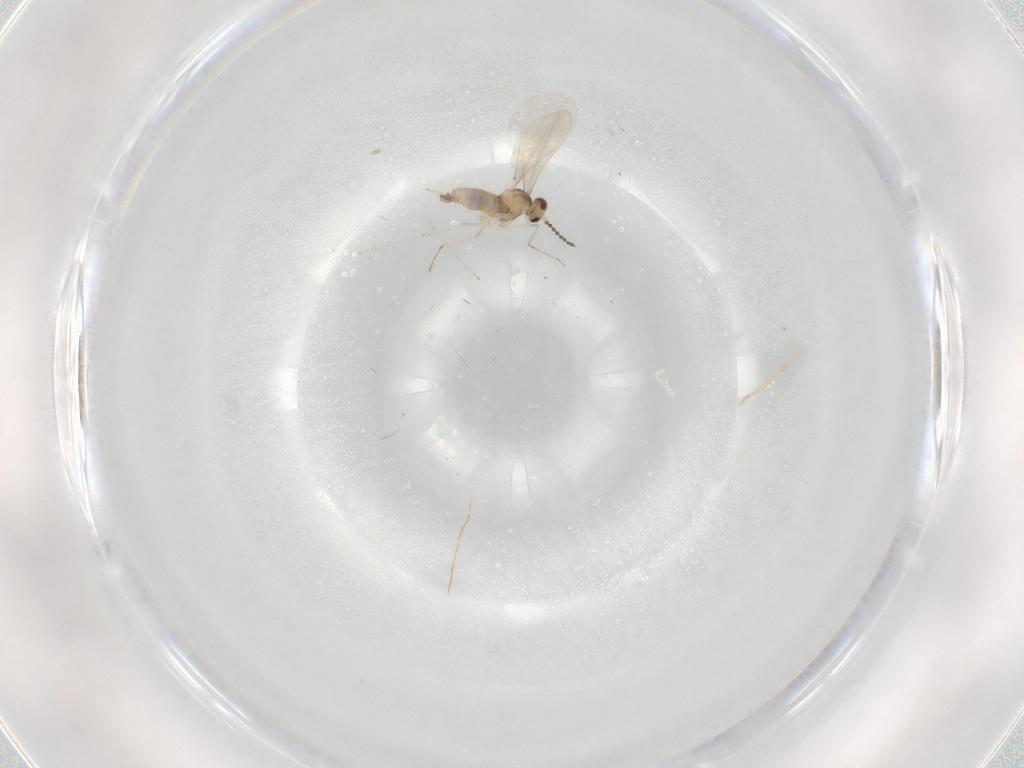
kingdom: Animalia
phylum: Arthropoda
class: Insecta
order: Diptera
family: Cecidomyiidae
